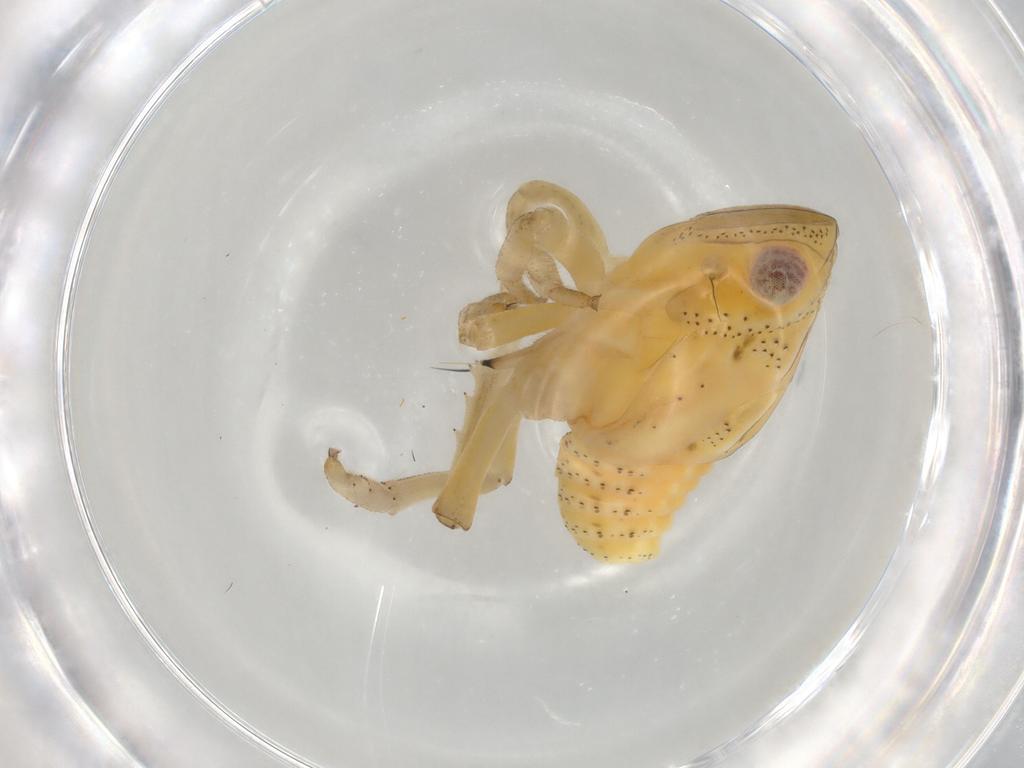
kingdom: Animalia
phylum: Arthropoda
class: Insecta
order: Hemiptera
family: Tropiduchidae
